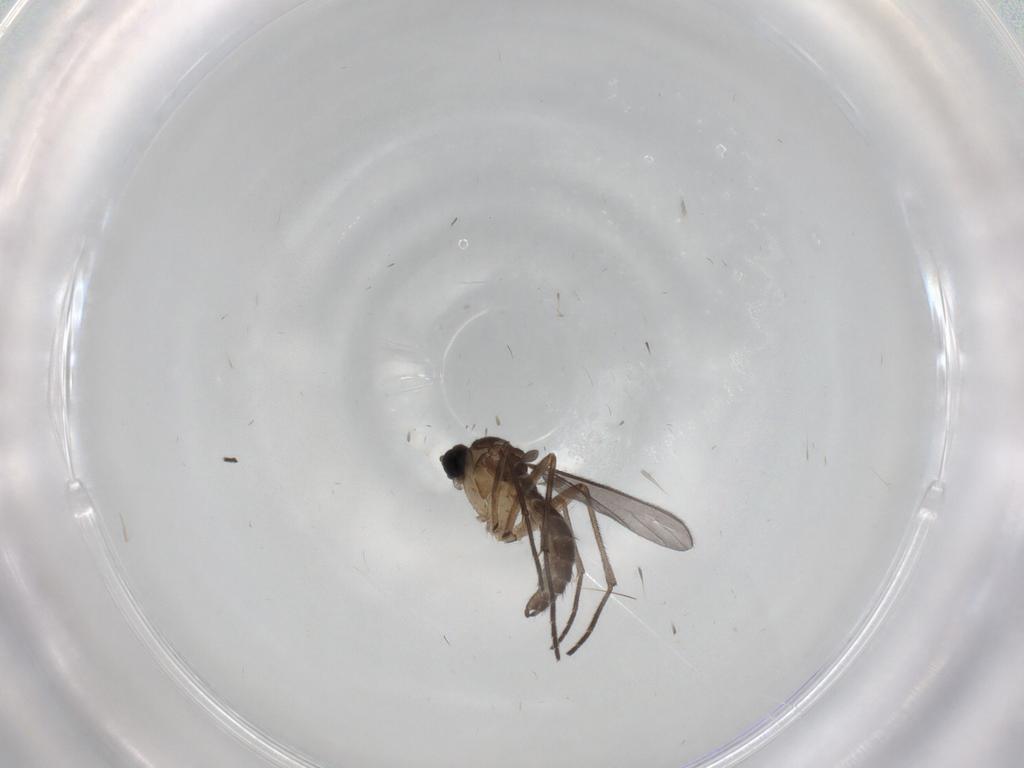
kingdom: Animalia
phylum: Arthropoda
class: Insecta
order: Diptera
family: Sciaridae
